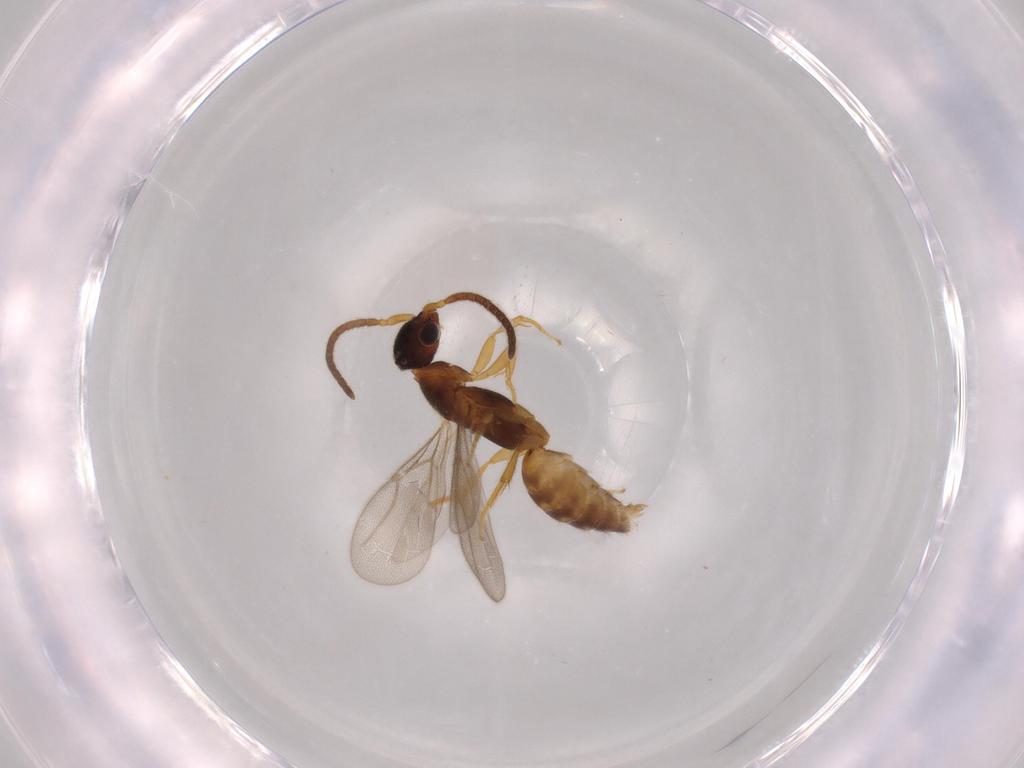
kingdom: Animalia
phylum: Arthropoda
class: Insecta
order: Hymenoptera
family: Bethylidae
